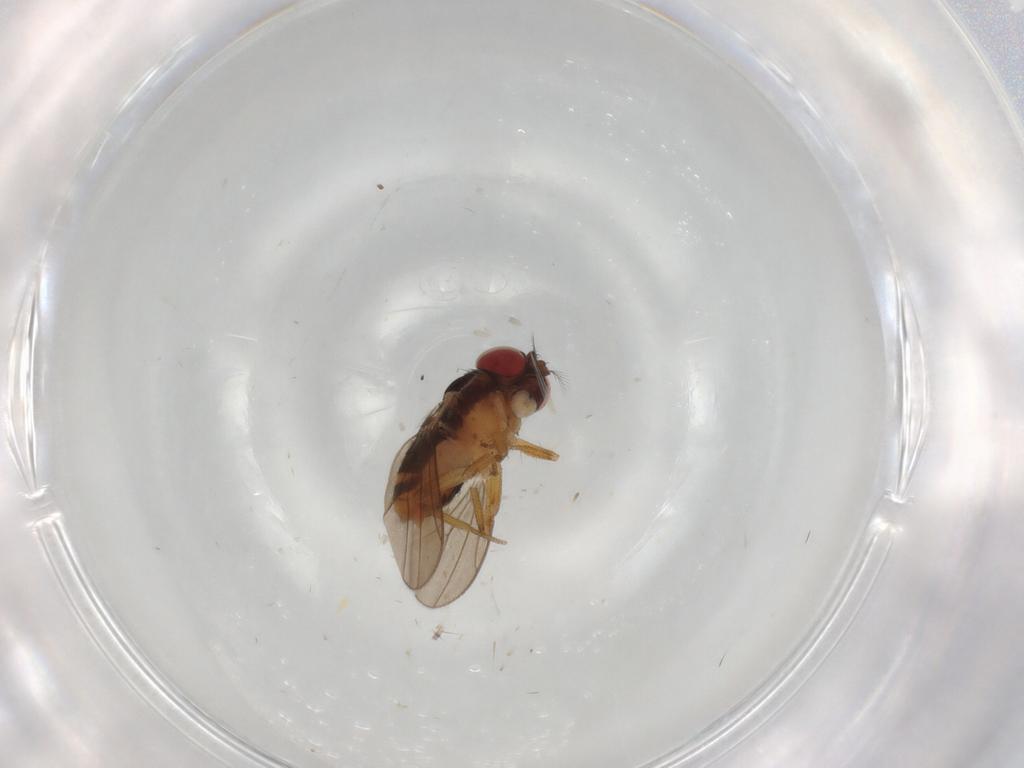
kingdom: Animalia
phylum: Arthropoda
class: Insecta
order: Diptera
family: Drosophilidae
